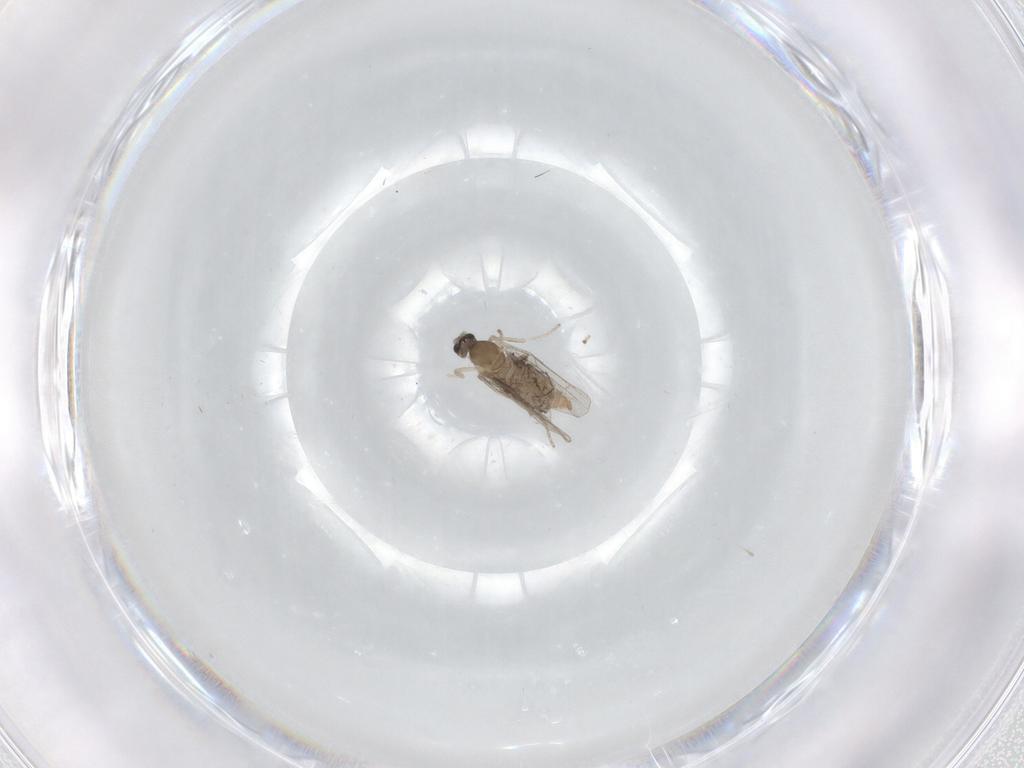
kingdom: Animalia
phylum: Arthropoda
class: Insecta
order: Diptera
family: Cecidomyiidae
